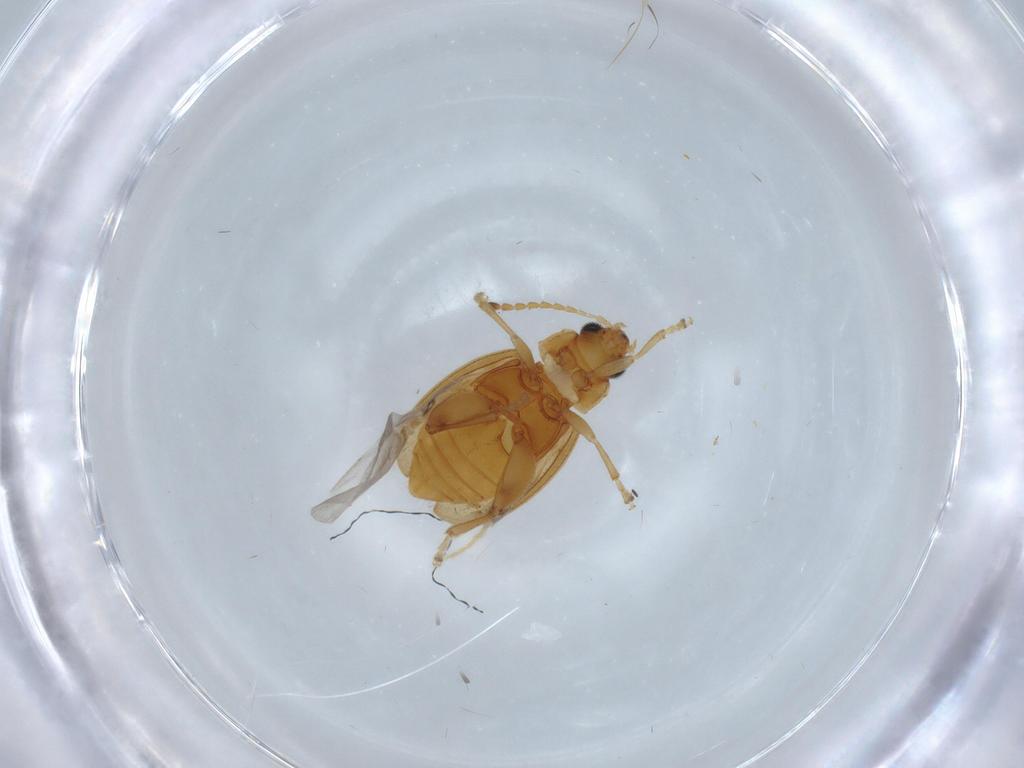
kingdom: Animalia
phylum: Arthropoda
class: Insecta
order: Coleoptera
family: Chrysomelidae
